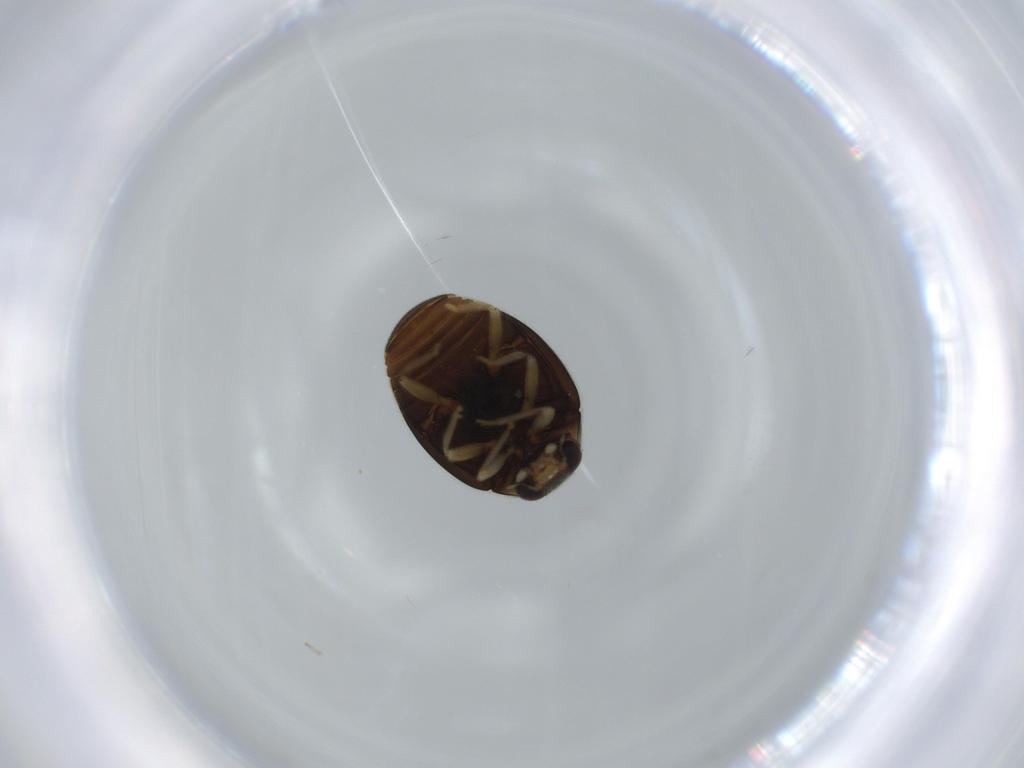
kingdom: Animalia
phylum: Arthropoda
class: Insecta
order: Coleoptera
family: Coccinellidae
